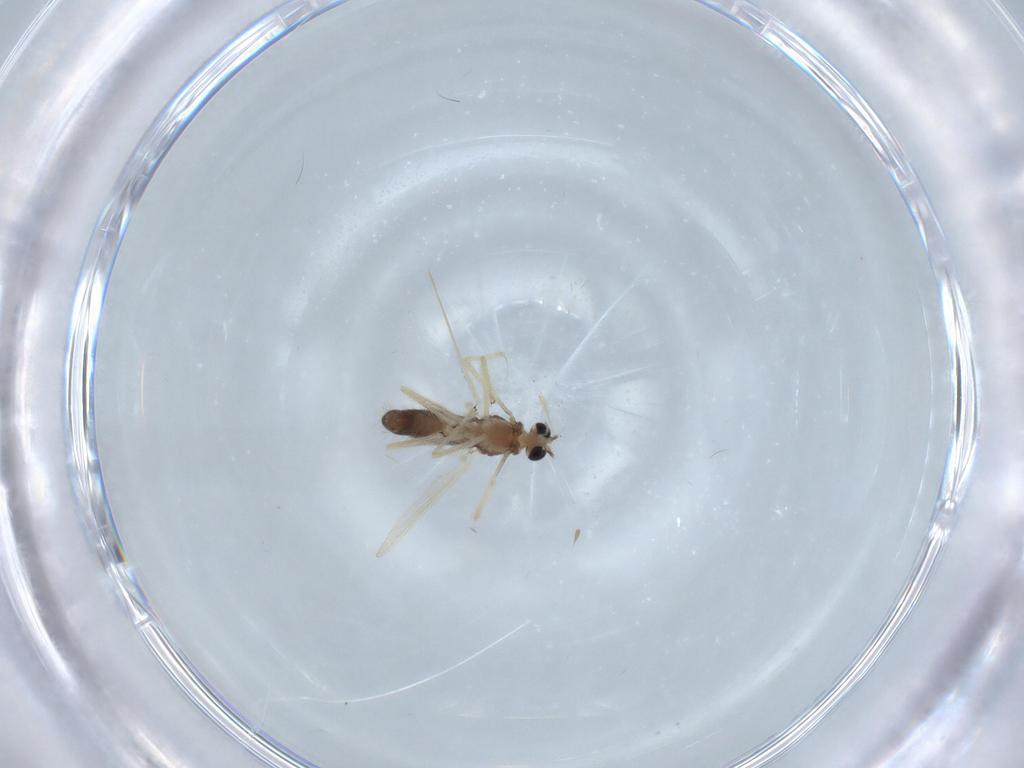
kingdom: Animalia
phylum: Arthropoda
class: Insecta
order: Diptera
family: Chironomidae
